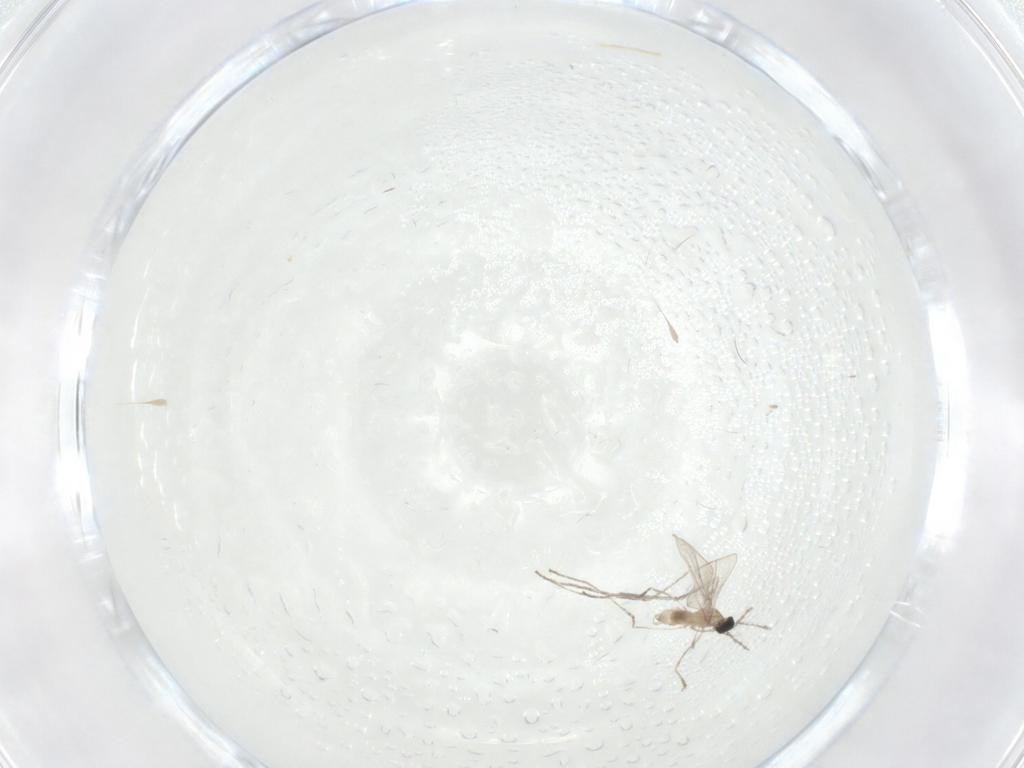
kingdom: Animalia
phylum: Arthropoda
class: Insecta
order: Diptera
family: Cecidomyiidae
